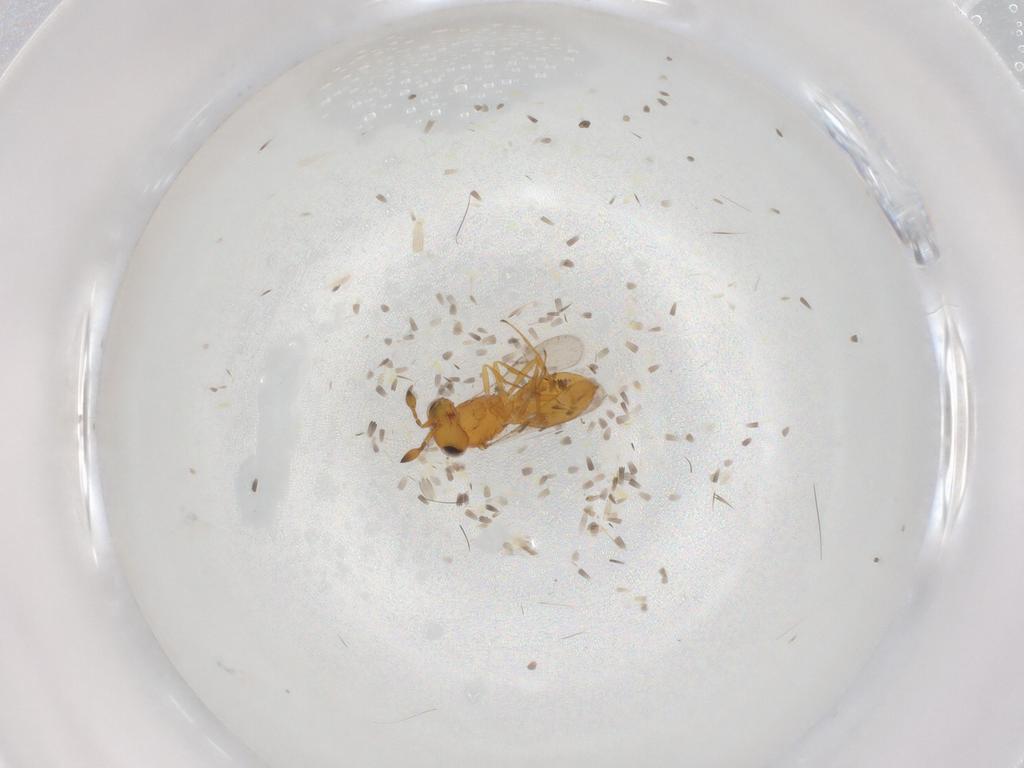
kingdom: Animalia
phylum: Arthropoda
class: Insecta
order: Hymenoptera
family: Scelionidae
